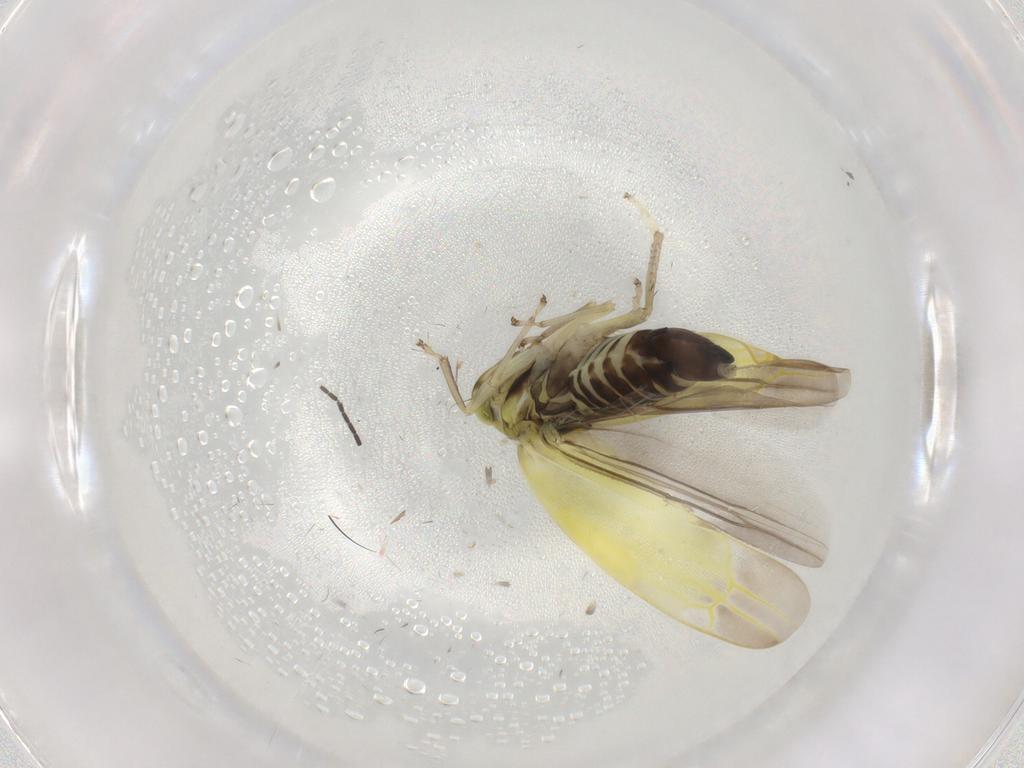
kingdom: Animalia
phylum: Arthropoda
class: Insecta
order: Hemiptera
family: Cicadellidae
